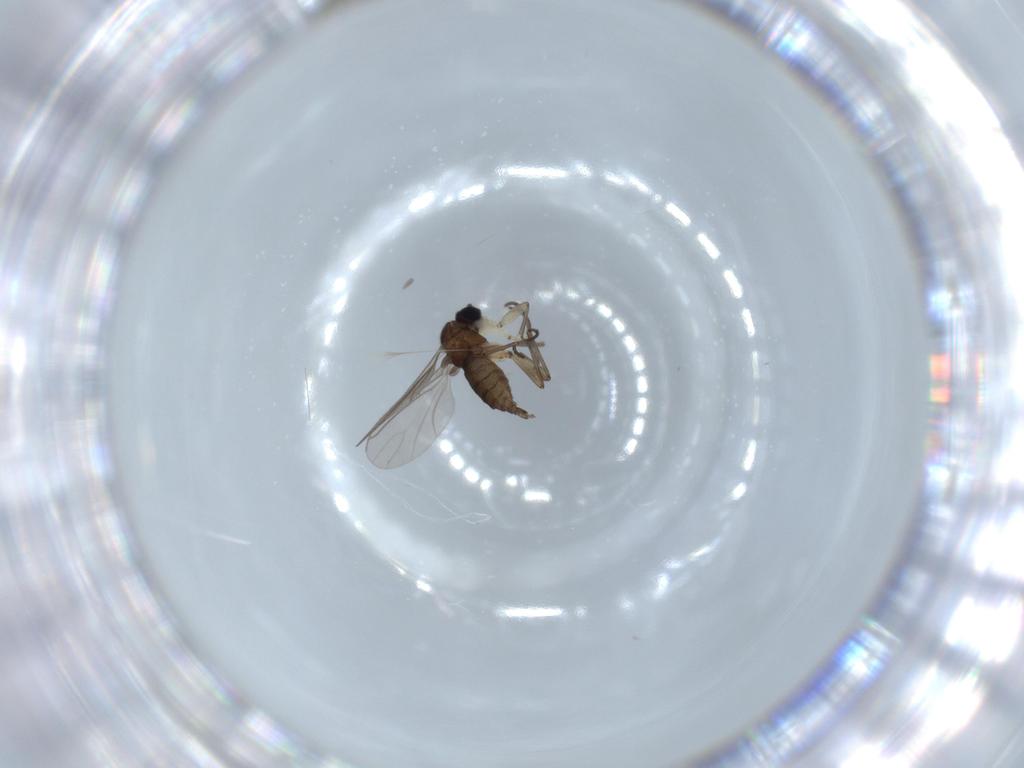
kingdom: Animalia
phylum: Arthropoda
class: Insecta
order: Diptera
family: Sciaridae
